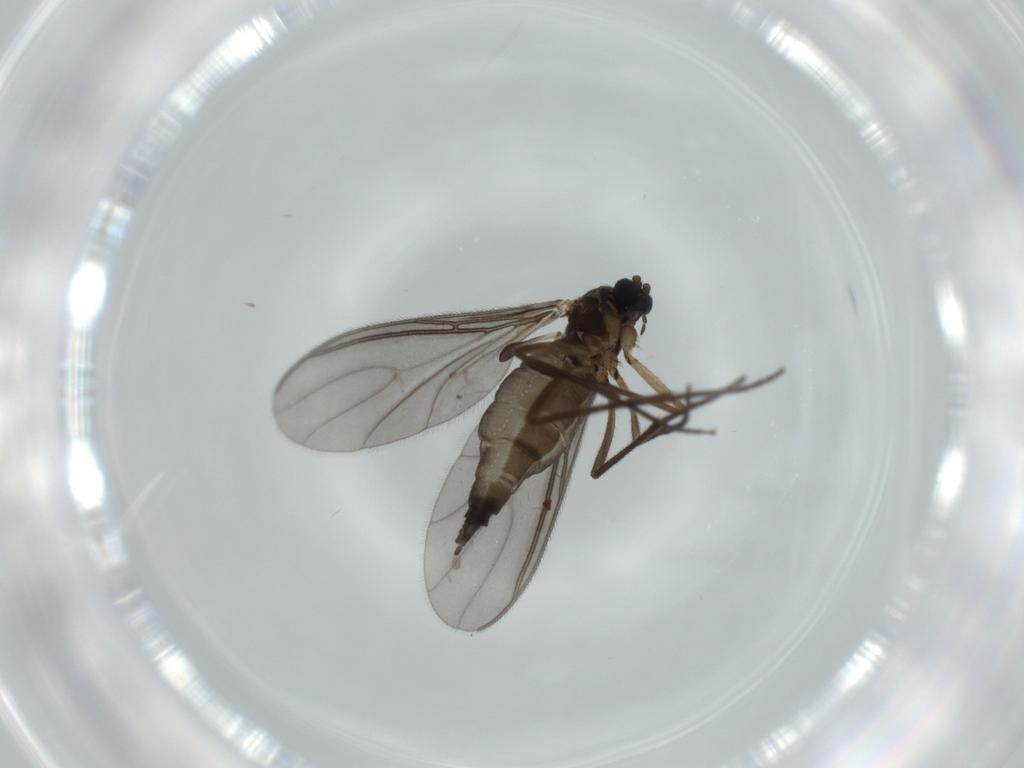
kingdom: Animalia
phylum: Arthropoda
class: Insecta
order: Diptera
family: Sciaridae
